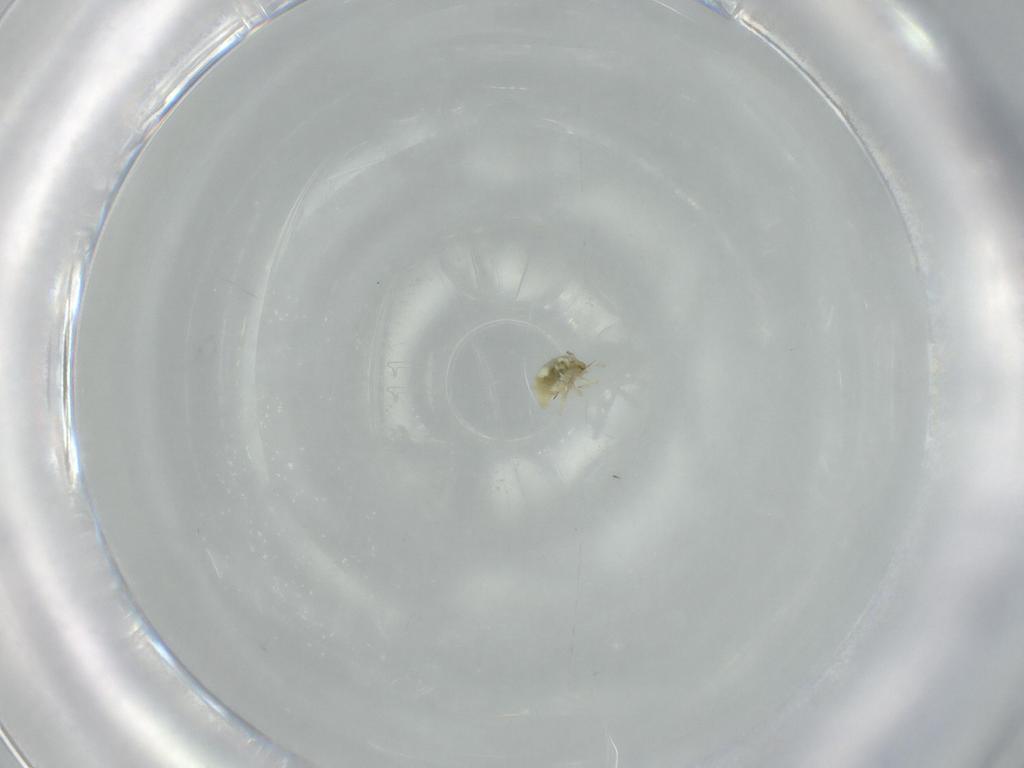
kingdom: Animalia
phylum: Arthropoda
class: Insecta
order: Neuroptera
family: Coniopterygidae
